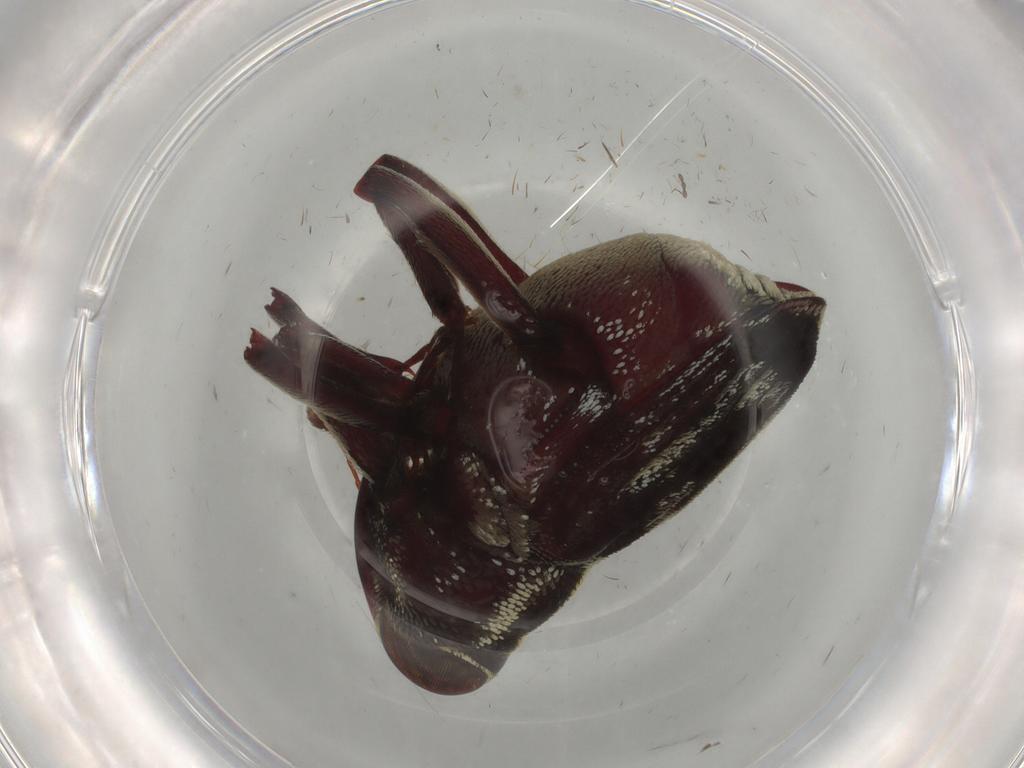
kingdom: Animalia
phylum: Arthropoda
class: Insecta
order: Coleoptera
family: Curculionidae
